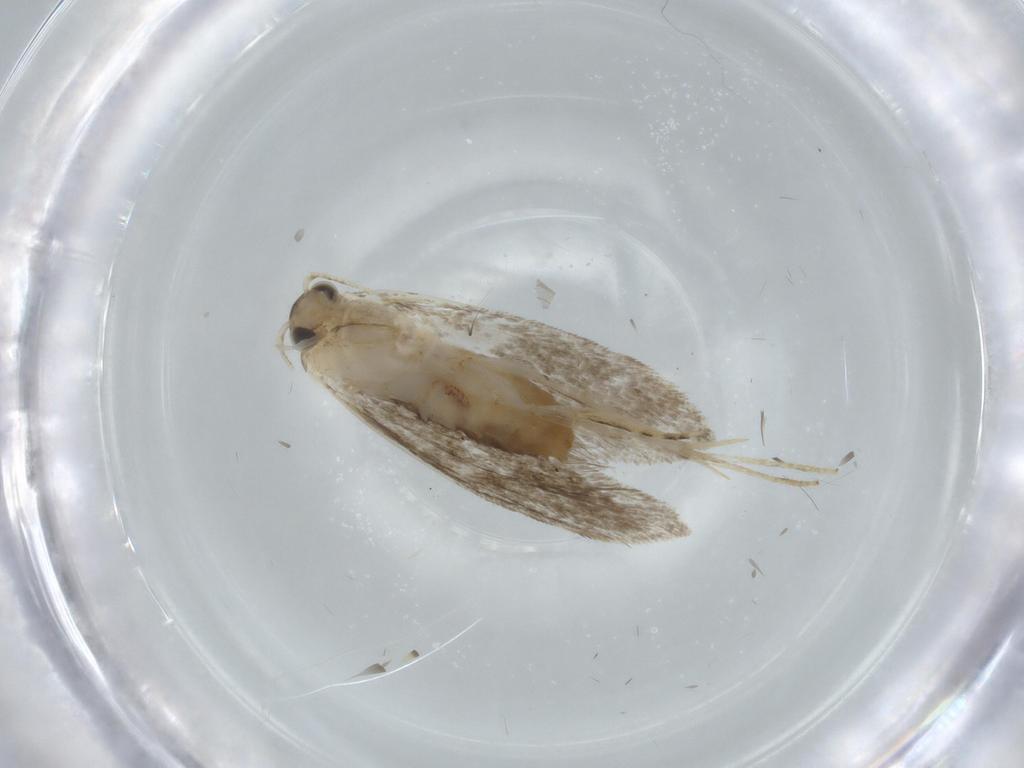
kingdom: Animalia
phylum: Arthropoda
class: Insecta
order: Lepidoptera
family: Tineidae
